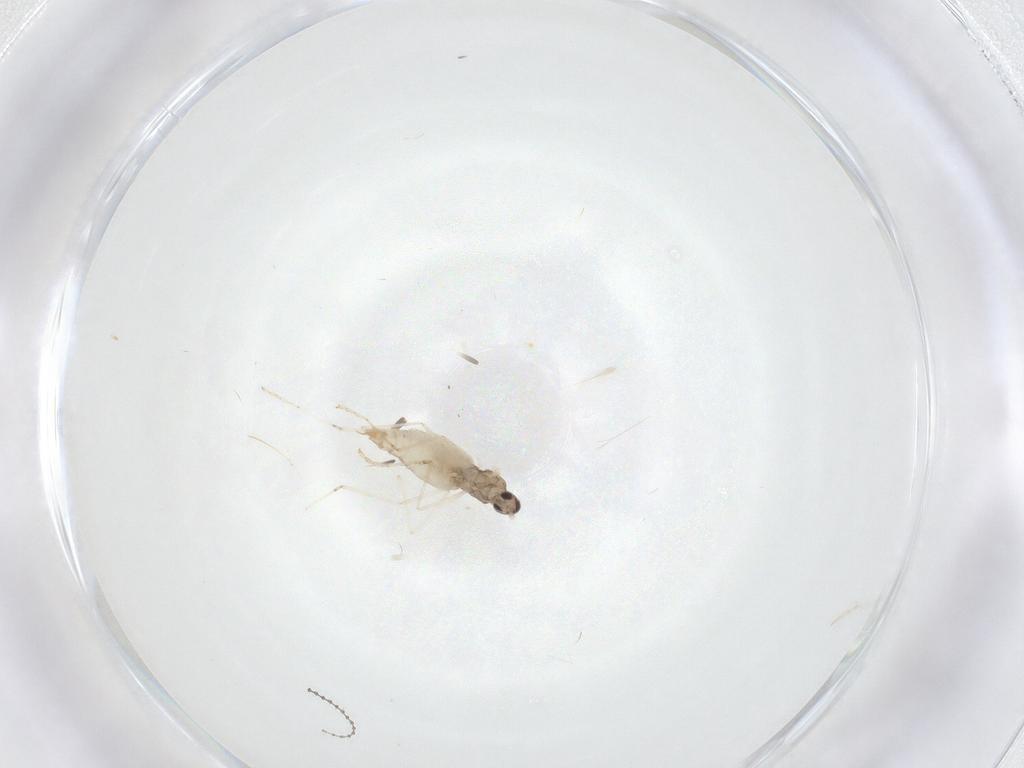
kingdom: Animalia
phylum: Arthropoda
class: Insecta
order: Diptera
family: Cecidomyiidae
